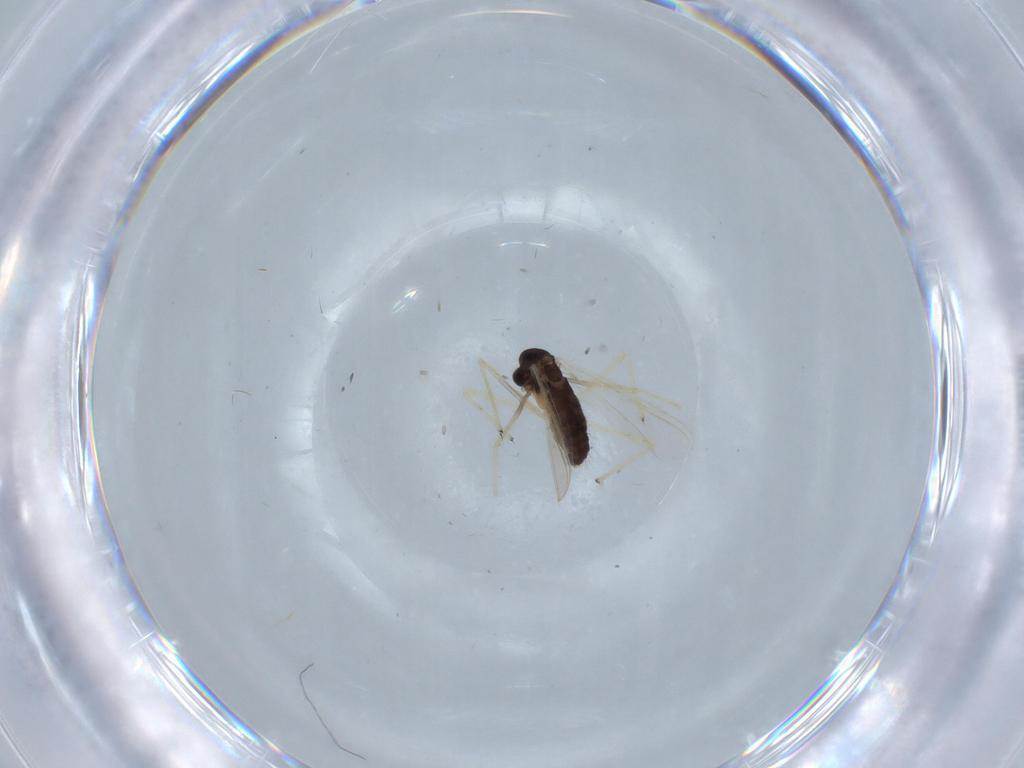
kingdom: Animalia
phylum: Arthropoda
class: Insecta
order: Diptera
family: Chironomidae
